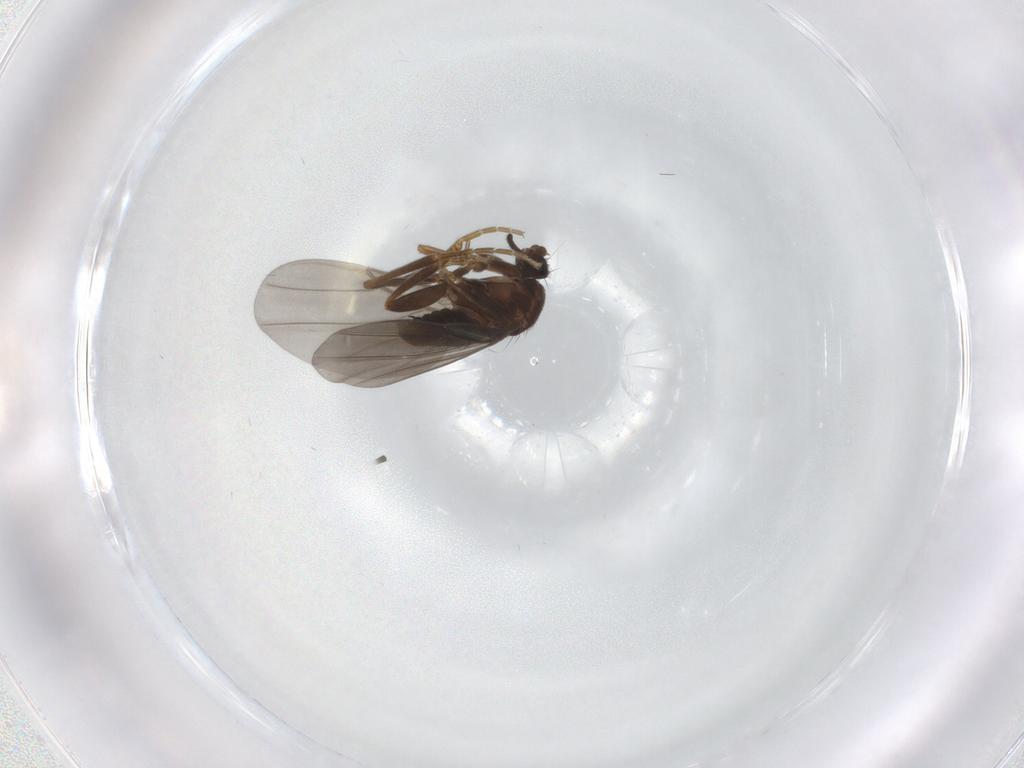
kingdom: Animalia
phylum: Arthropoda
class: Insecta
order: Diptera
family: Phoridae
